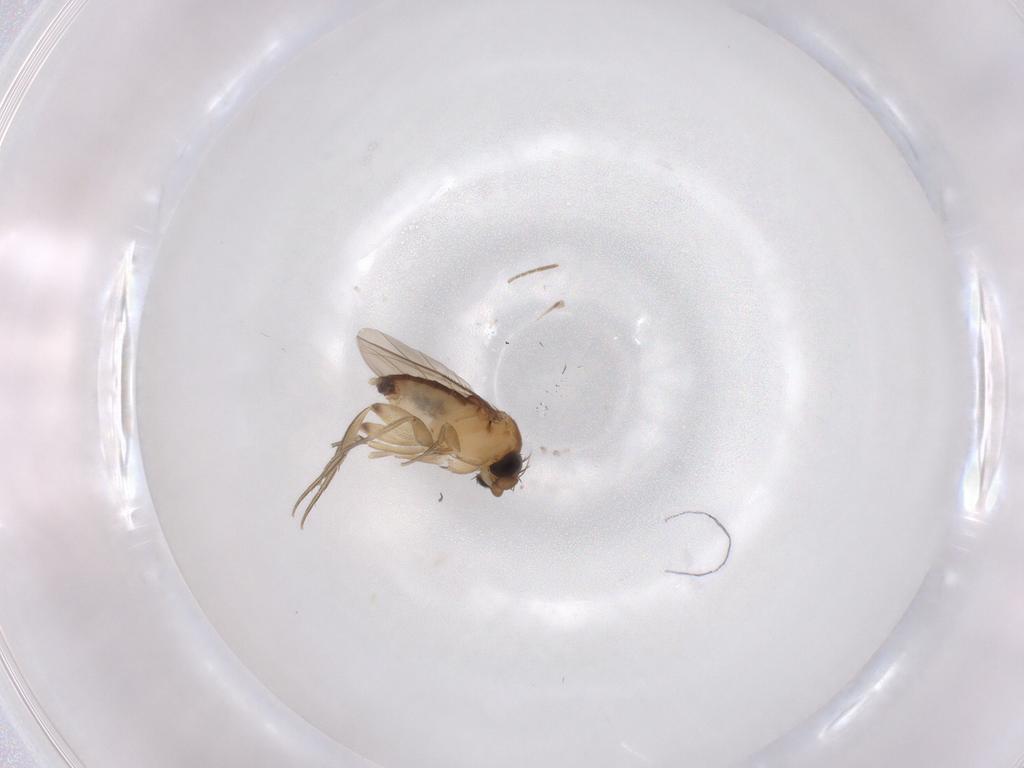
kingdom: Animalia
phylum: Arthropoda
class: Insecta
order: Diptera
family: Phoridae
